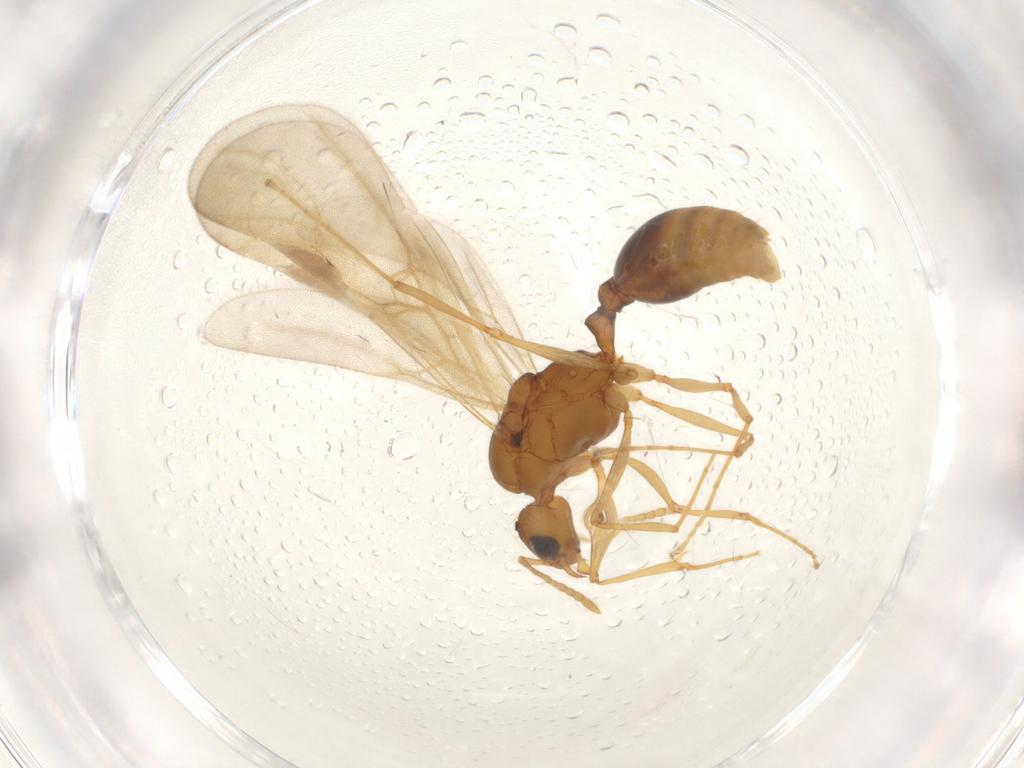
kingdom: Animalia
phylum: Arthropoda
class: Insecta
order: Hymenoptera
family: Formicidae
